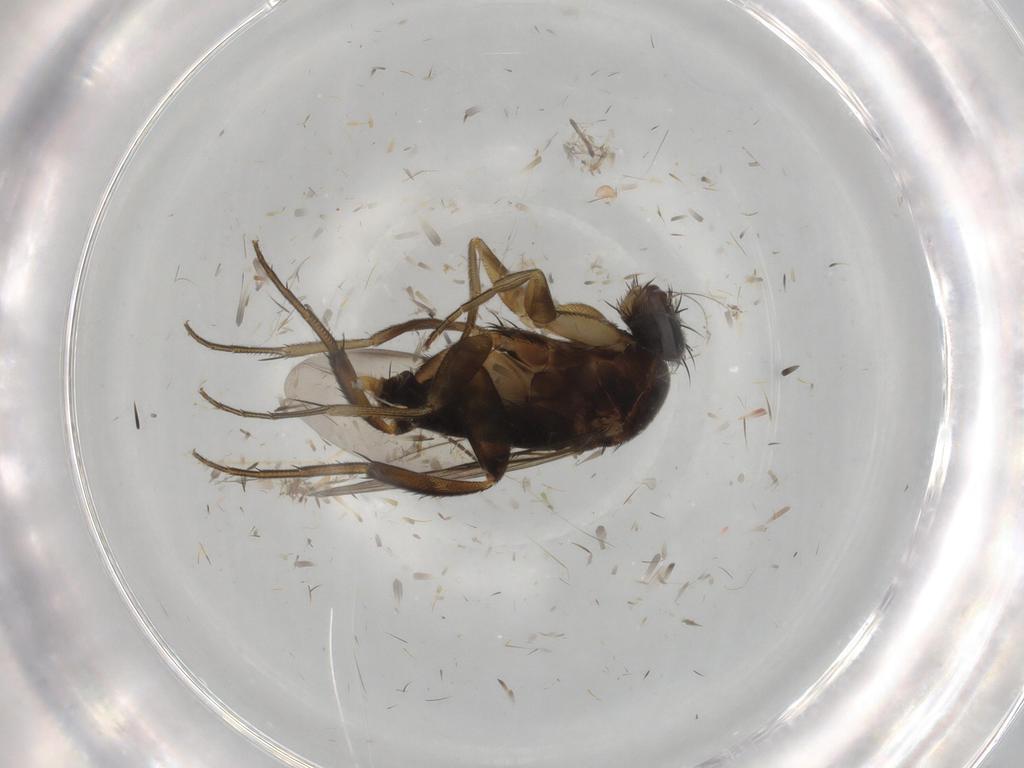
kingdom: Animalia
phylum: Arthropoda
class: Insecta
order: Diptera
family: Phoridae
